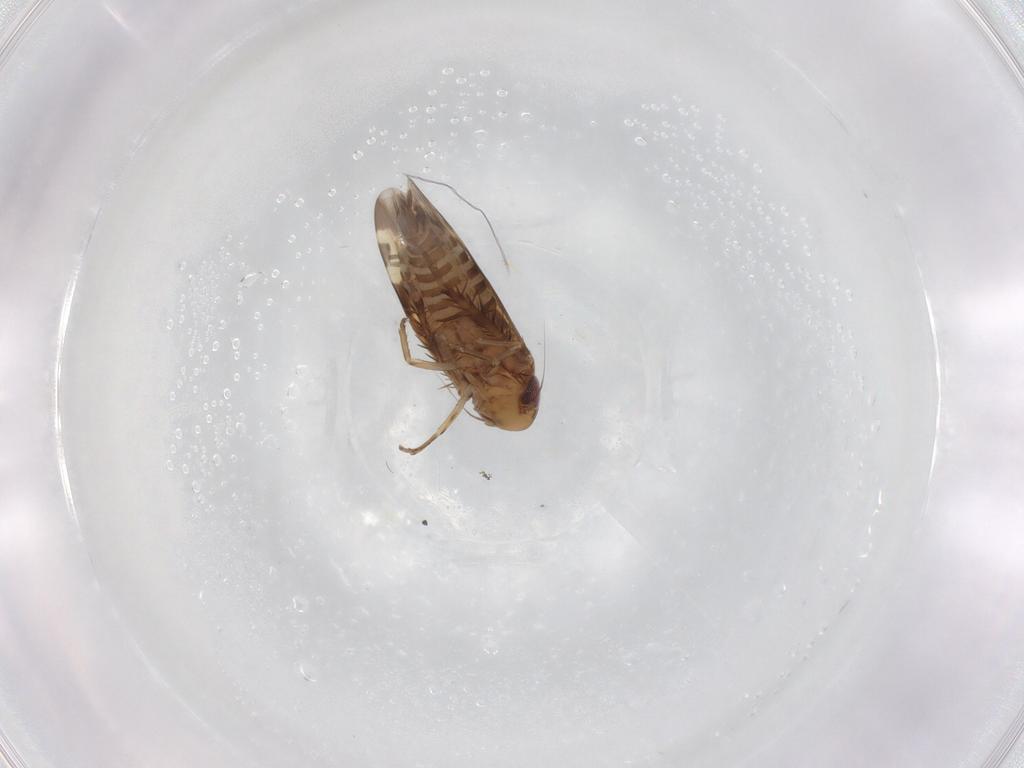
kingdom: Animalia
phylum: Arthropoda
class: Insecta
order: Hemiptera
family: Cicadellidae
